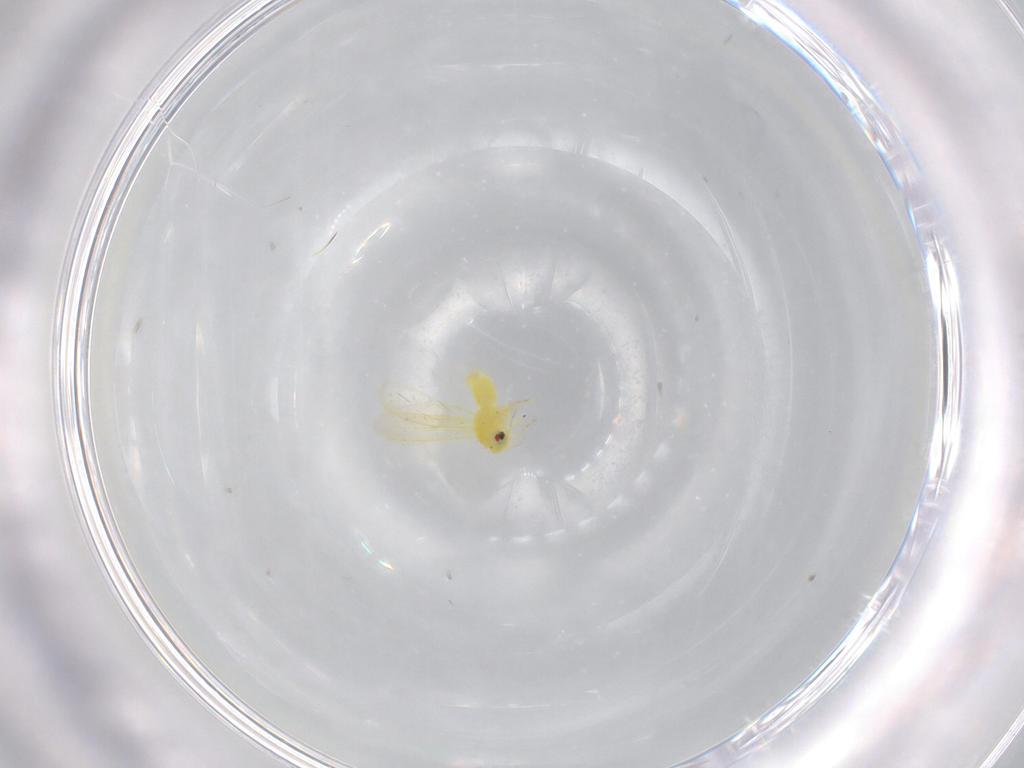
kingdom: Animalia
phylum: Arthropoda
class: Insecta
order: Hemiptera
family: Aleyrodidae
